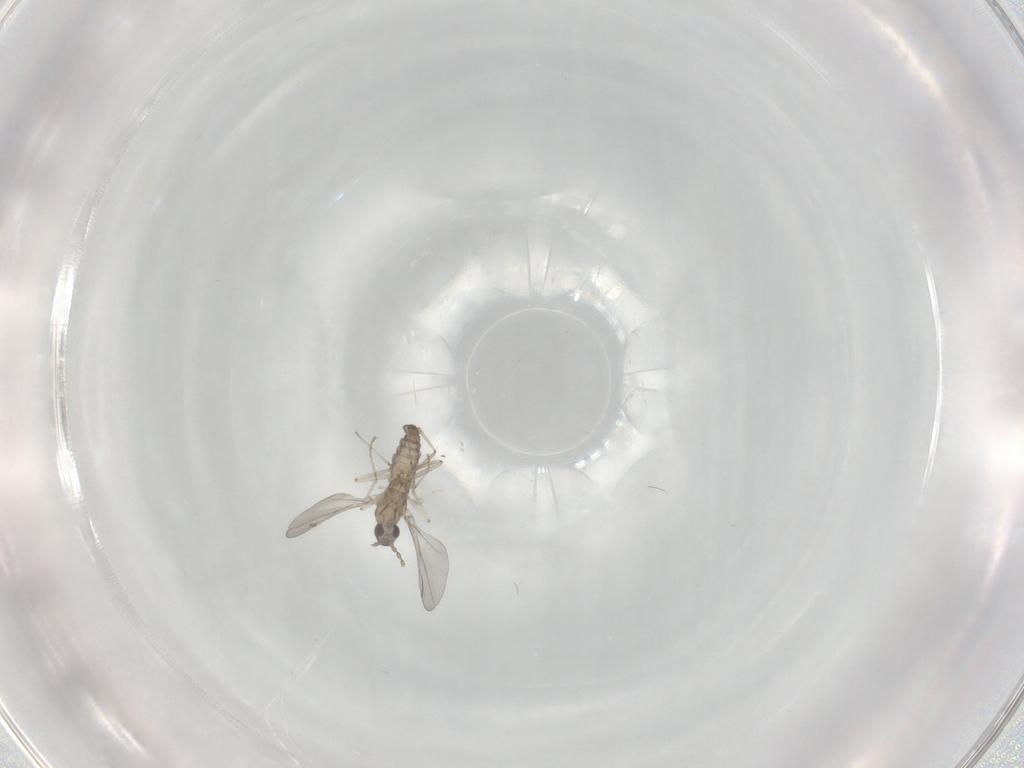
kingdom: Animalia
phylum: Arthropoda
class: Insecta
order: Diptera
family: Cecidomyiidae
